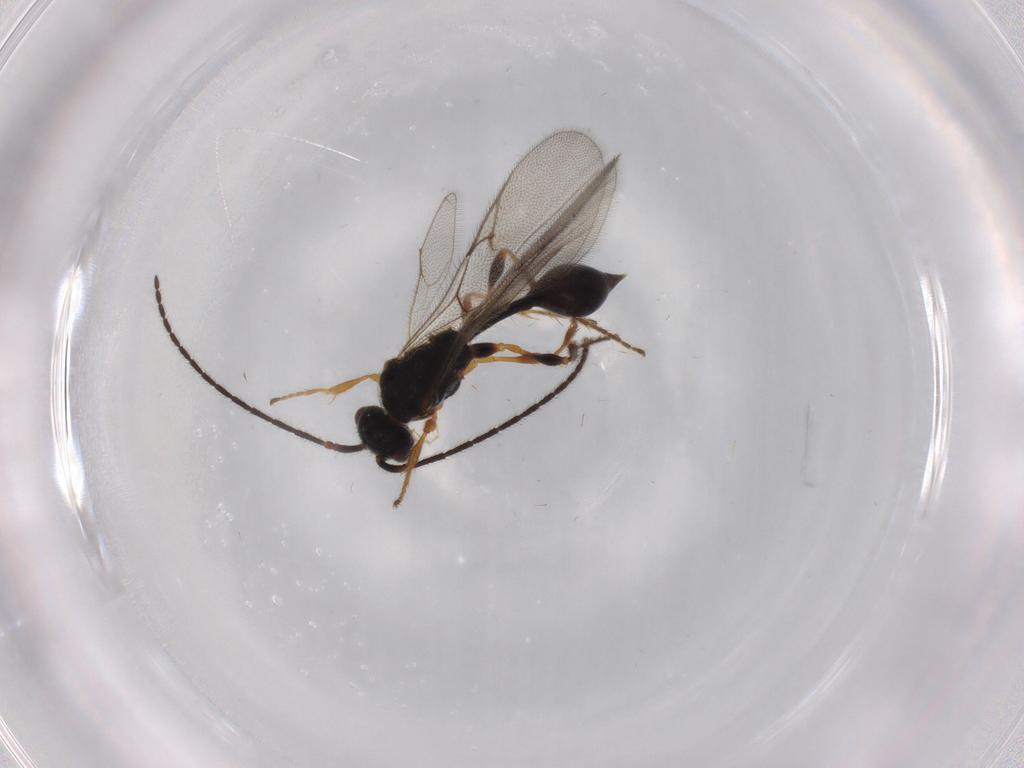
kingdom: Animalia
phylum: Arthropoda
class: Insecta
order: Hymenoptera
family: Diapriidae
